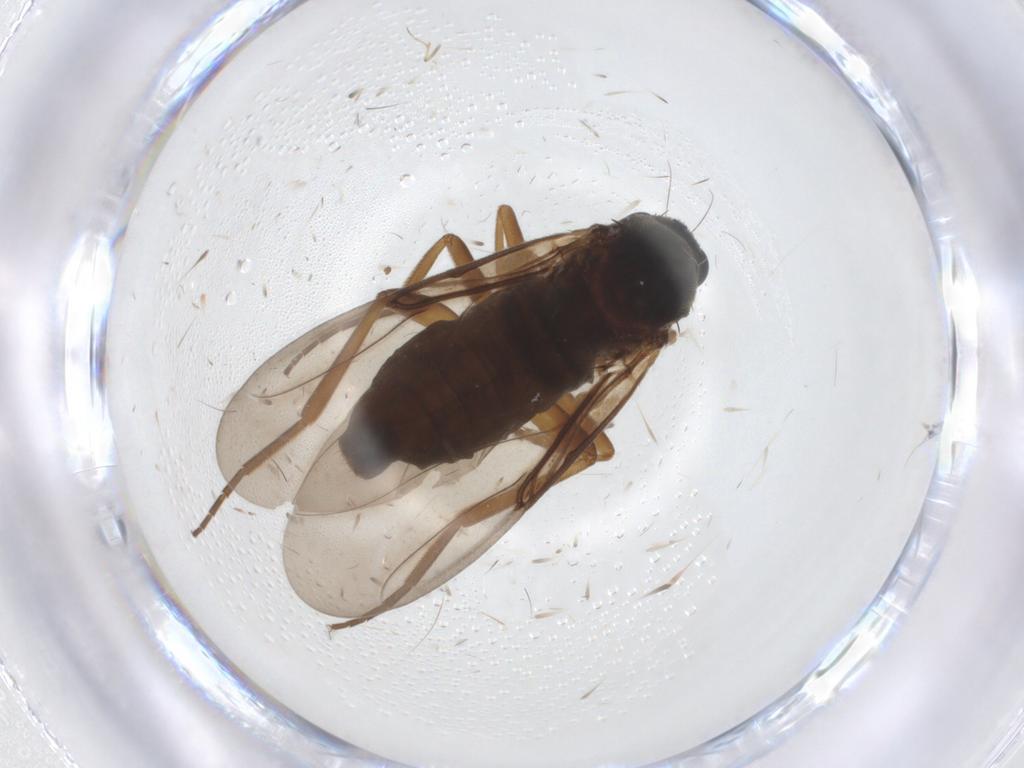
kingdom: Animalia
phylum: Arthropoda
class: Insecta
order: Diptera
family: Phoridae
